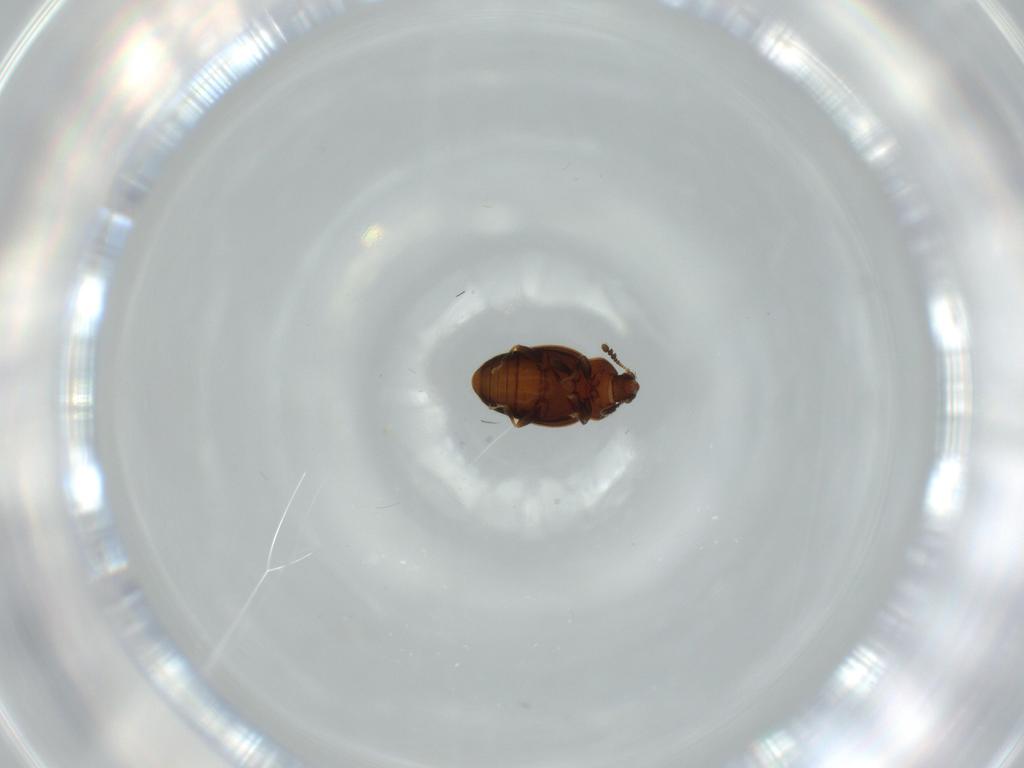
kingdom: Animalia
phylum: Arthropoda
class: Insecta
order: Coleoptera
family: Corylophidae
